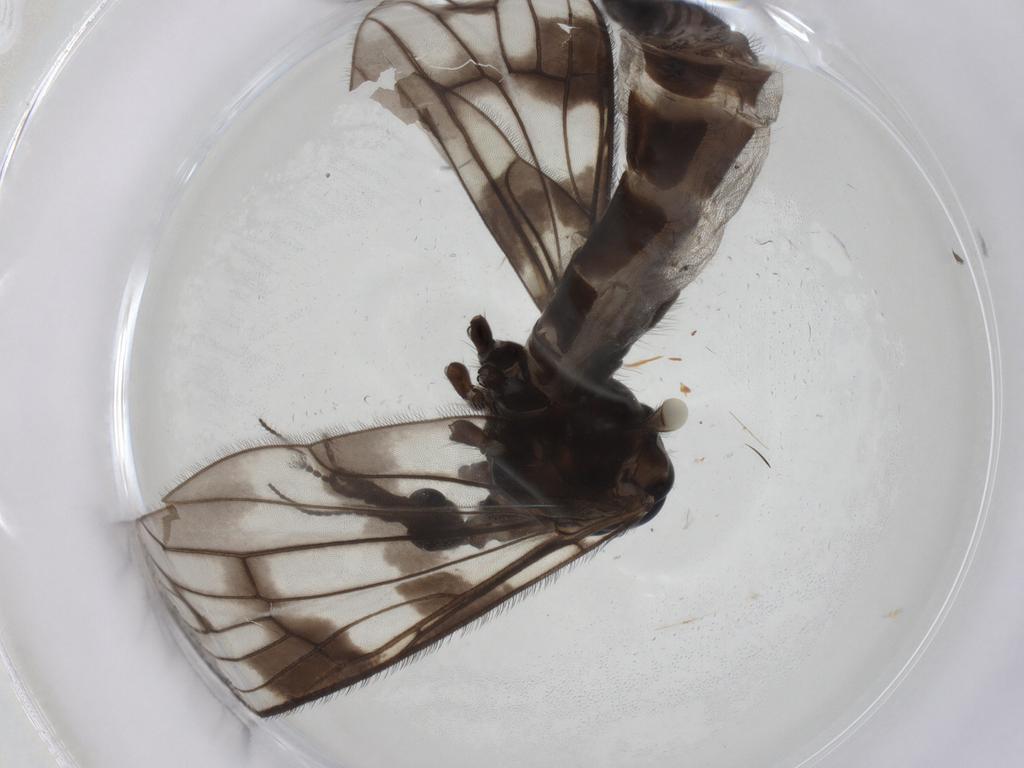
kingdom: Animalia
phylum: Arthropoda
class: Insecta
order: Diptera
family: Limoniidae
